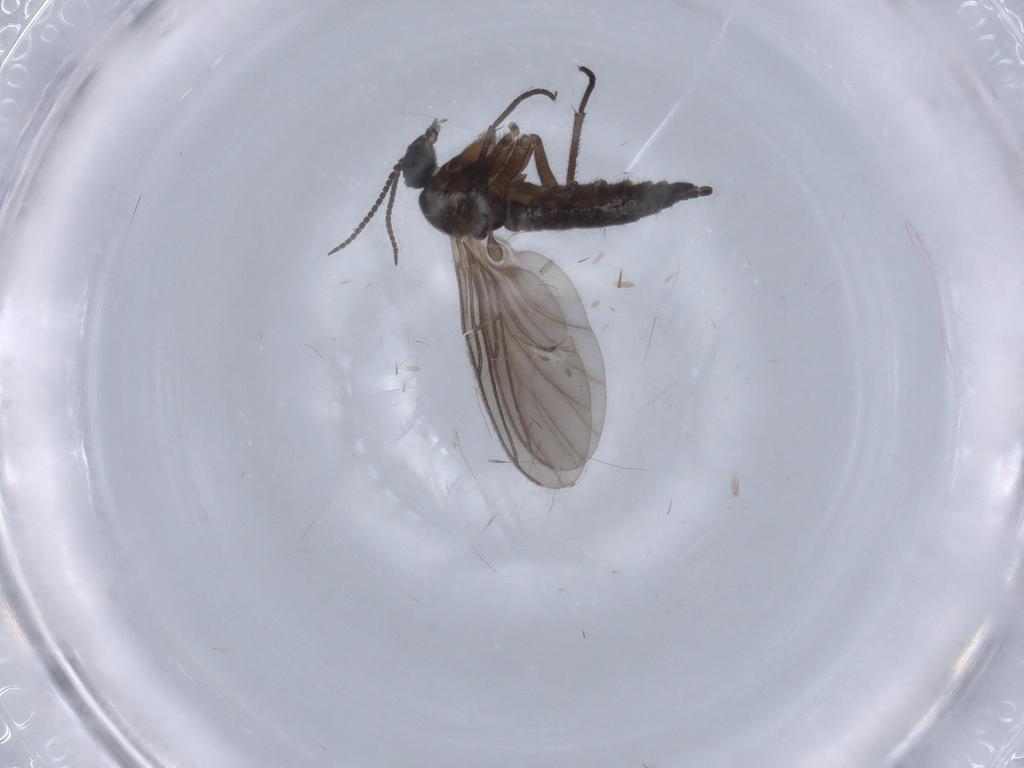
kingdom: Animalia
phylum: Arthropoda
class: Insecta
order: Diptera
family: Sciaridae
